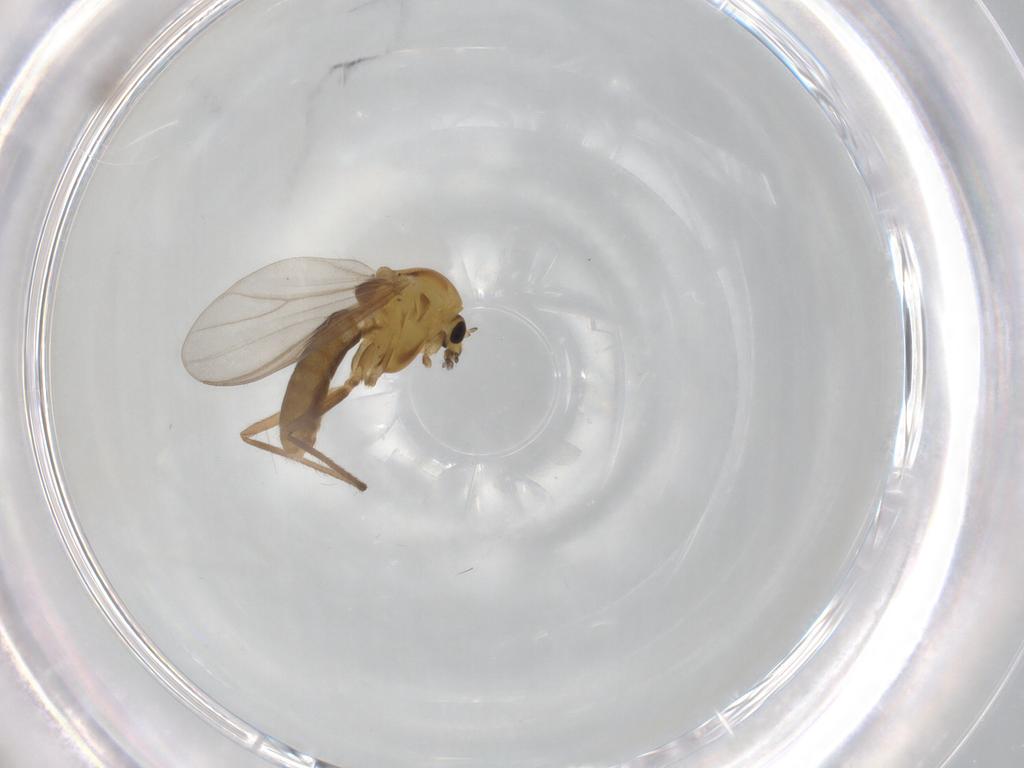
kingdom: Animalia
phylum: Arthropoda
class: Insecta
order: Diptera
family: Chironomidae
